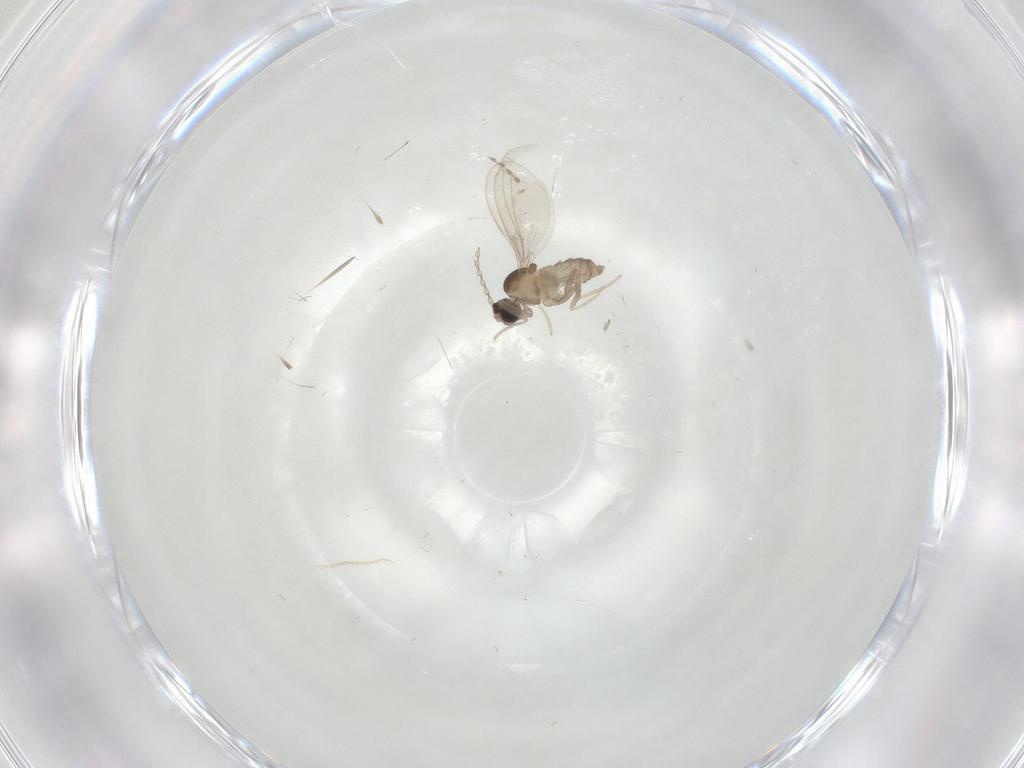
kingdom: Animalia
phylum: Arthropoda
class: Insecta
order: Diptera
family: Cecidomyiidae
